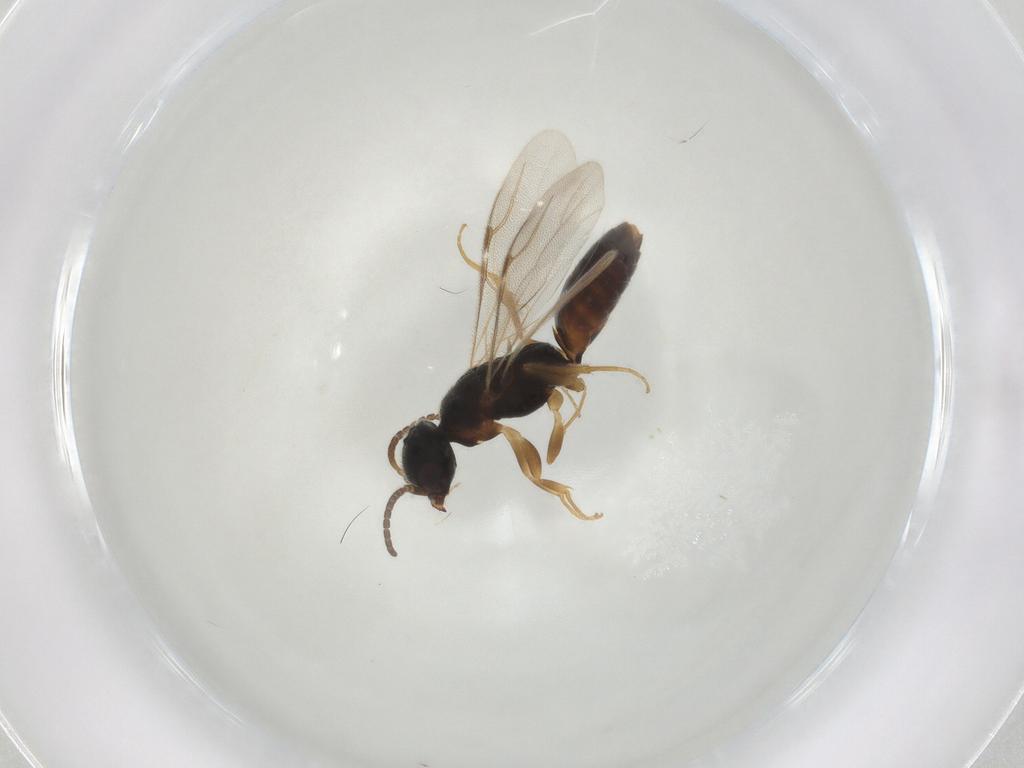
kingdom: Animalia
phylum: Arthropoda
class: Insecta
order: Hymenoptera
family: Bethylidae
